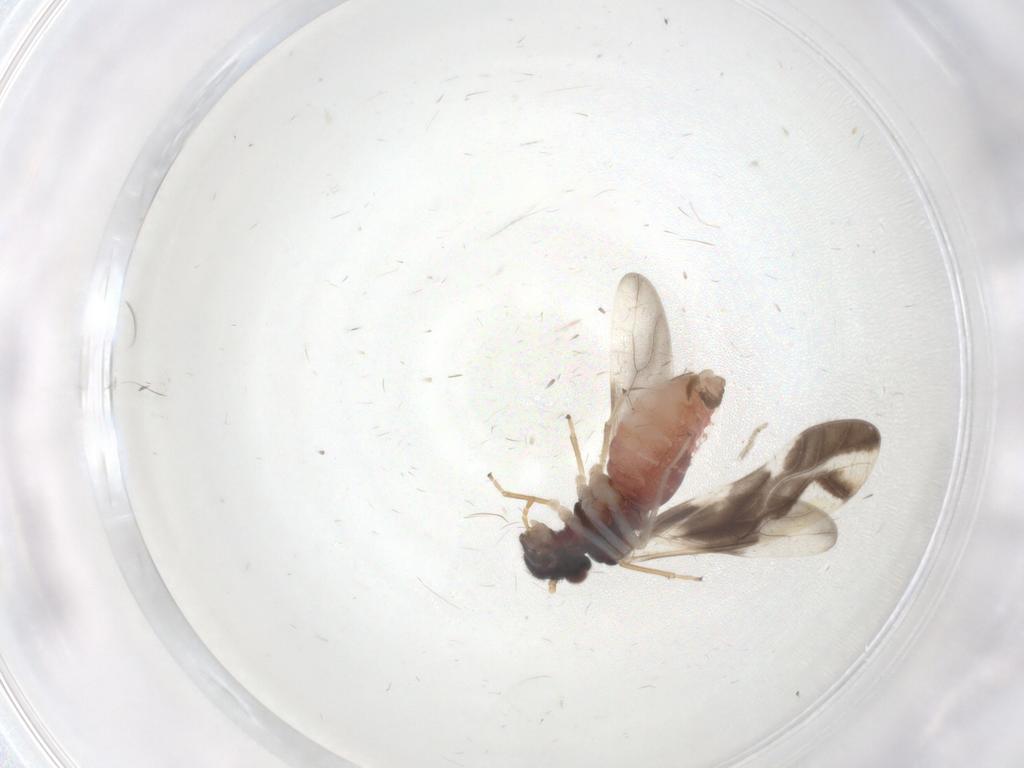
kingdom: Animalia
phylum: Arthropoda
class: Insecta
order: Psocodea
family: Caeciliusidae
